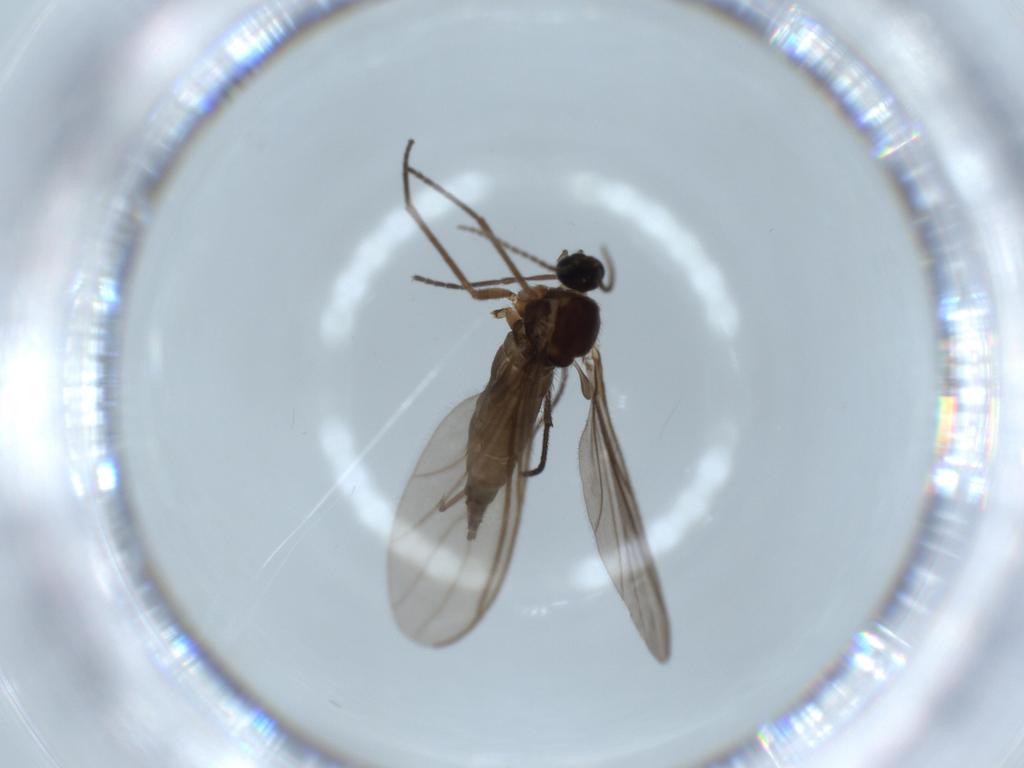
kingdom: Animalia
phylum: Arthropoda
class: Insecta
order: Diptera
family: Sciaridae
